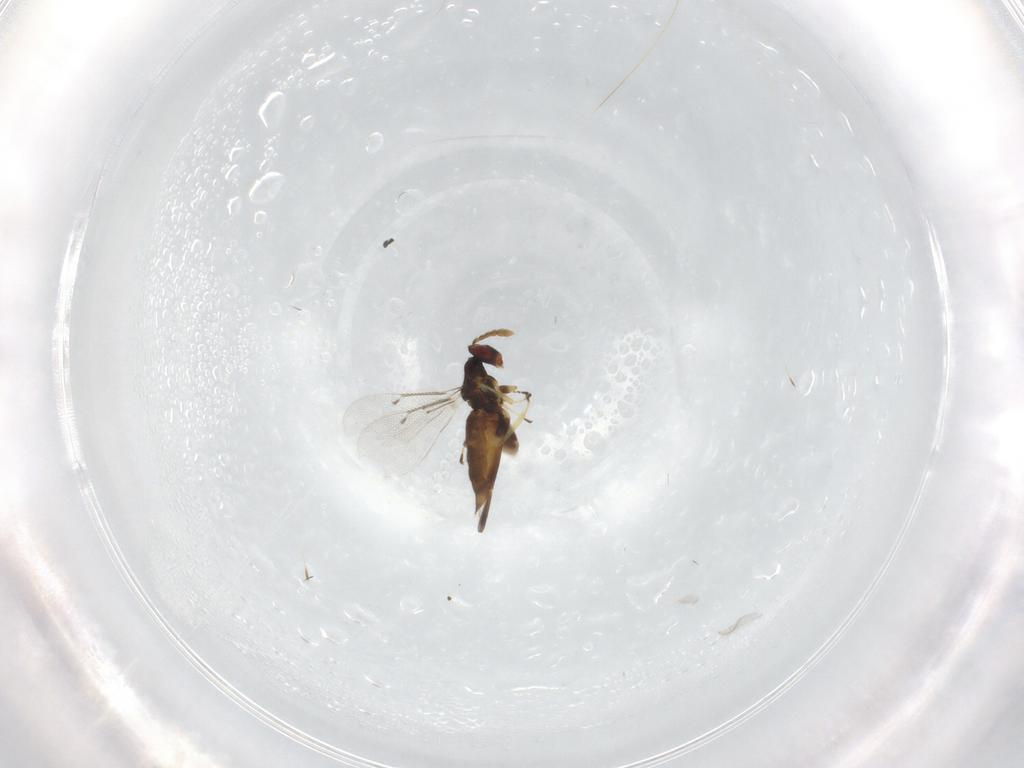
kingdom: Animalia
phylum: Arthropoda
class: Insecta
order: Hymenoptera
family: Eulophidae
